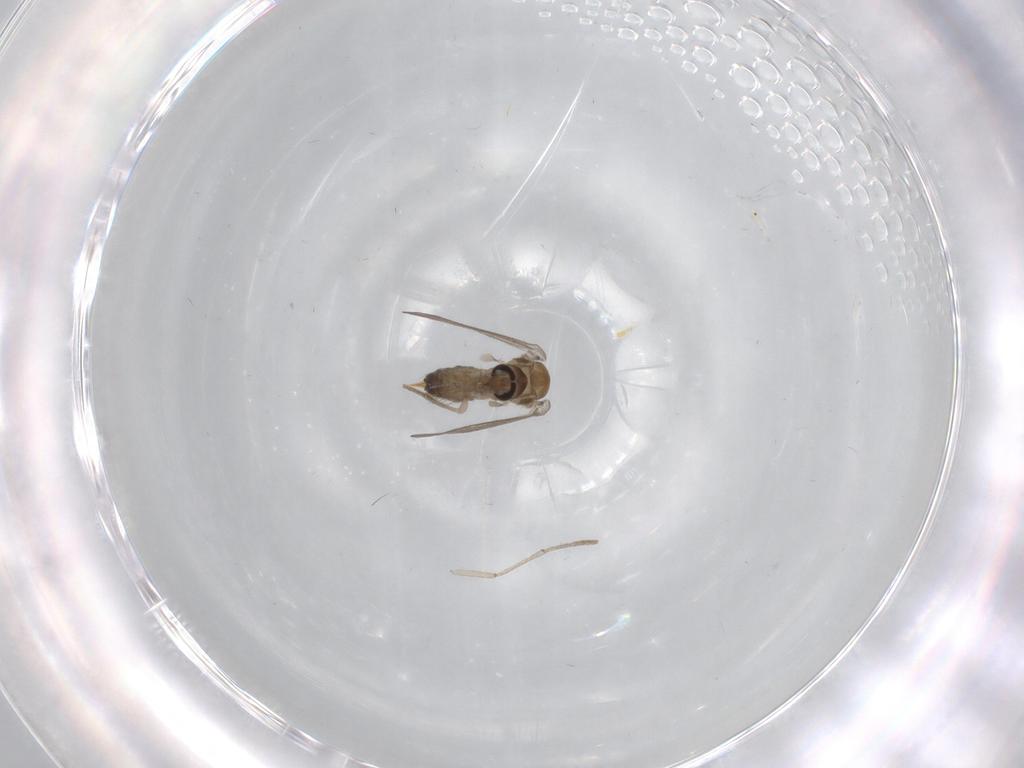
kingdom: Animalia
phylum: Arthropoda
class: Insecta
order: Diptera
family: Psychodidae
